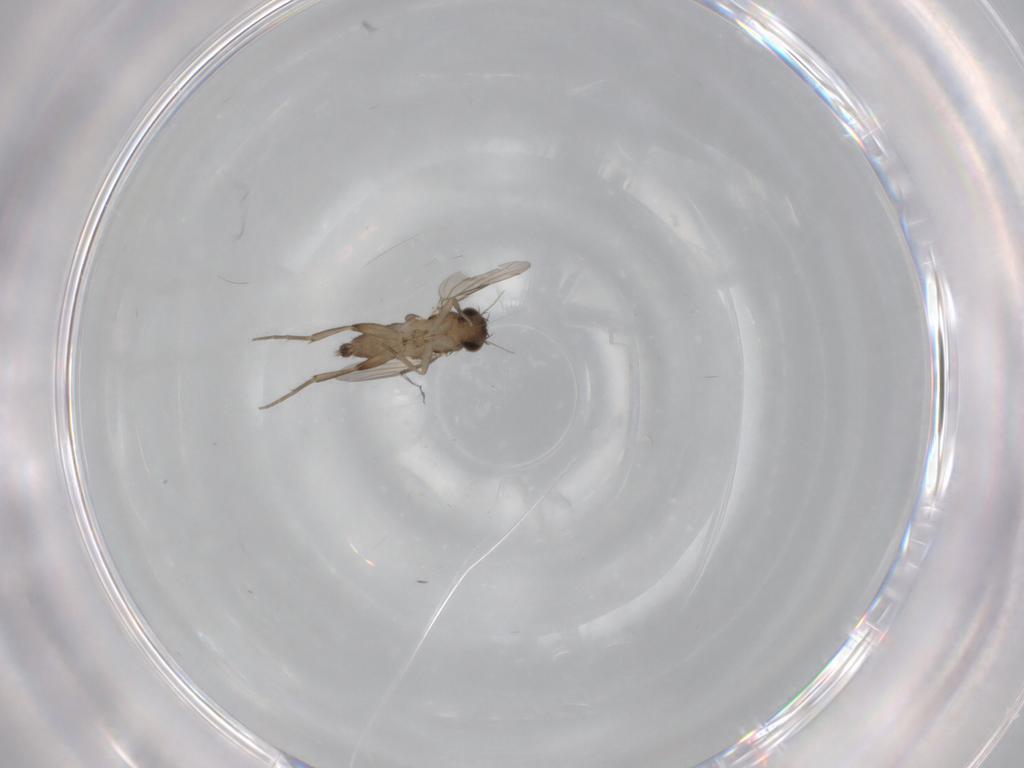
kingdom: Animalia
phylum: Arthropoda
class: Insecta
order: Diptera
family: Phoridae
